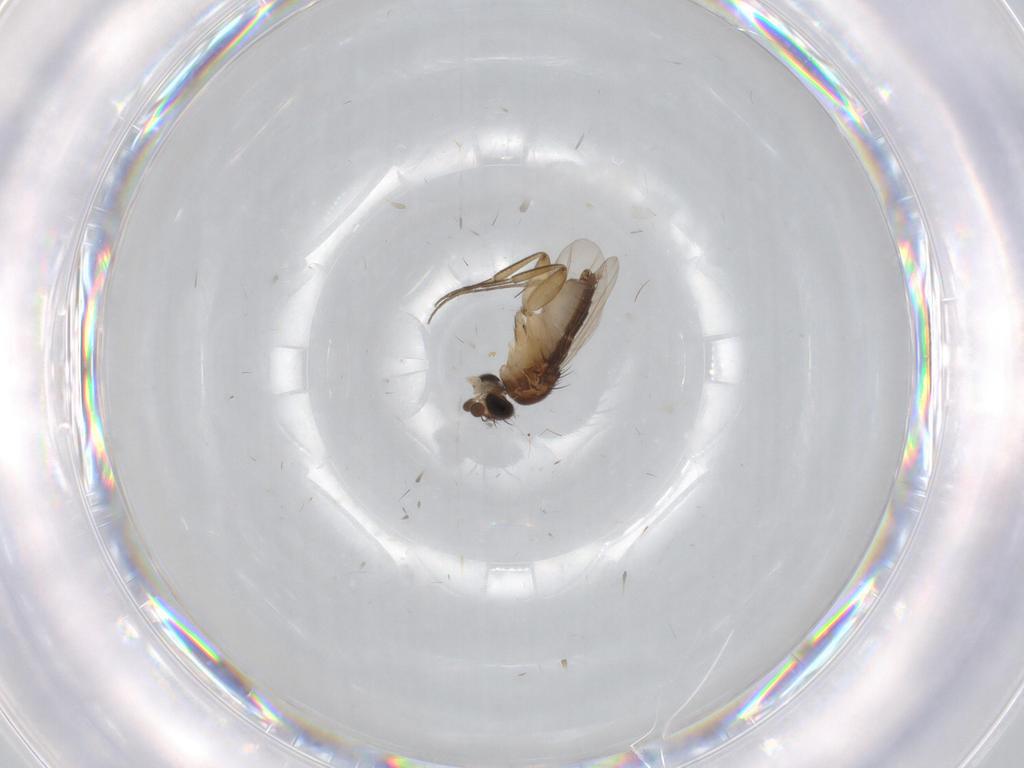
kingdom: Animalia
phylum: Arthropoda
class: Insecta
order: Diptera
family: Phoridae
